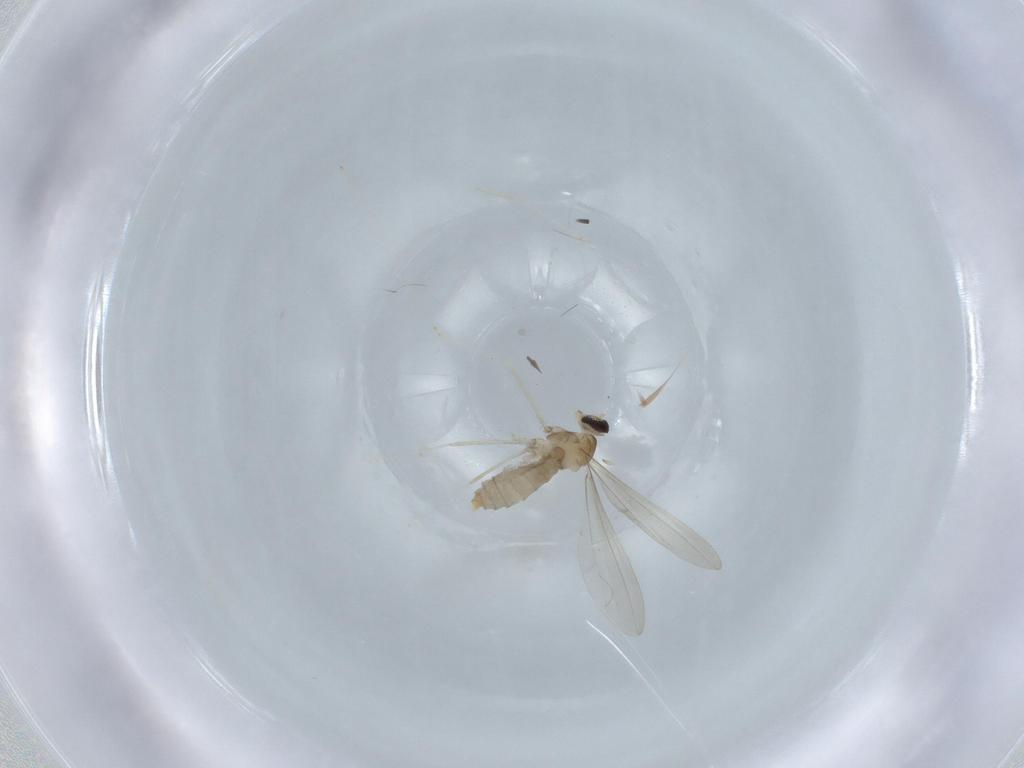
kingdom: Animalia
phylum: Arthropoda
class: Insecta
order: Diptera
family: Cecidomyiidae
